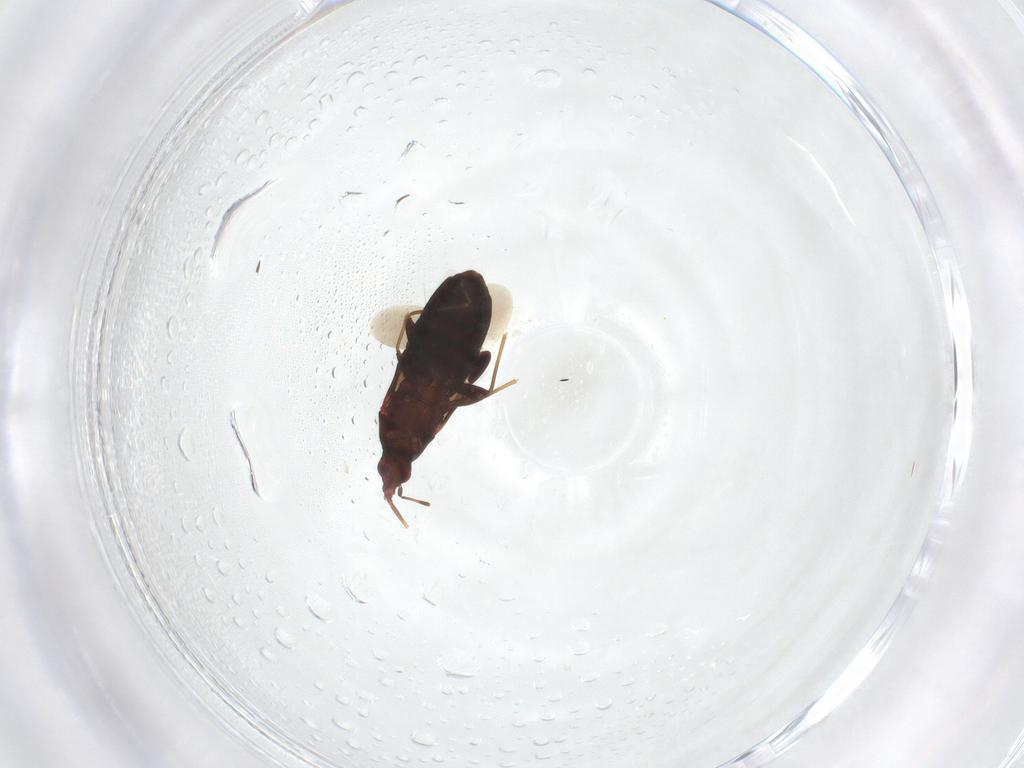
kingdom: Animalia
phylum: Arthropoda
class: Insecta
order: Hemiptera
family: Lasiochilidae
